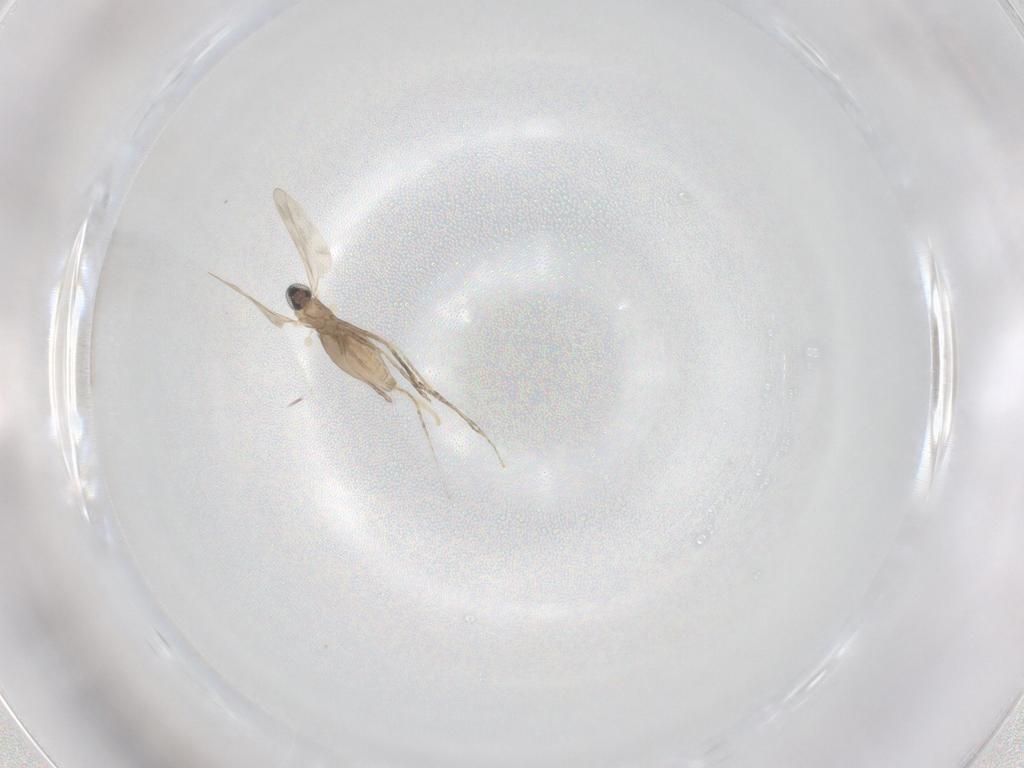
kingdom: Animalia
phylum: Arthropoda
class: Insecta
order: Diptera
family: Cecidomyiidae
